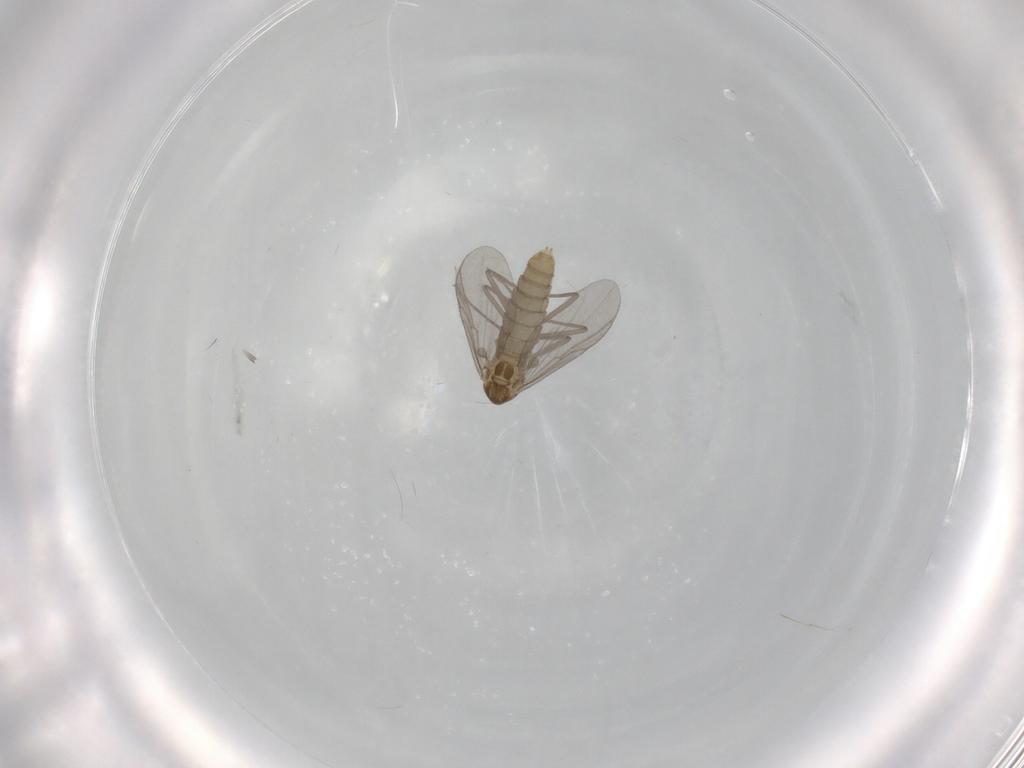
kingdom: Animalia
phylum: Arthropoda
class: Insecta
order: Diptera
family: Chironomidae
